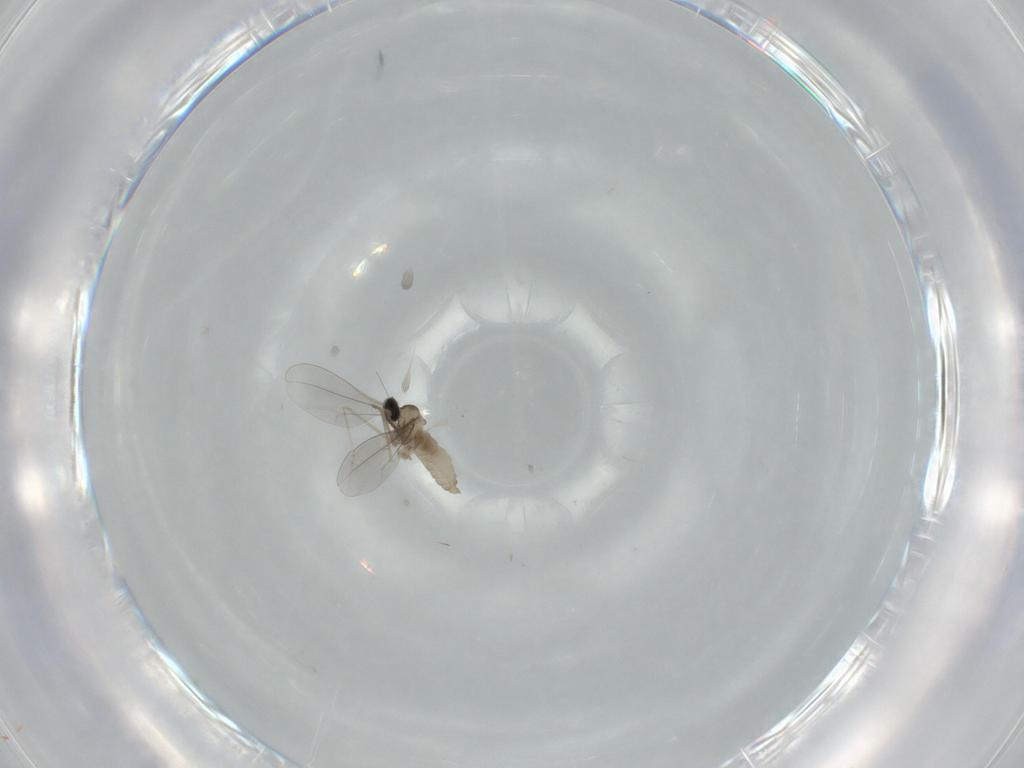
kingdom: Animalia
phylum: Arthropoda
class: Insecta
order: Diptera
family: Cecidomyiidae
